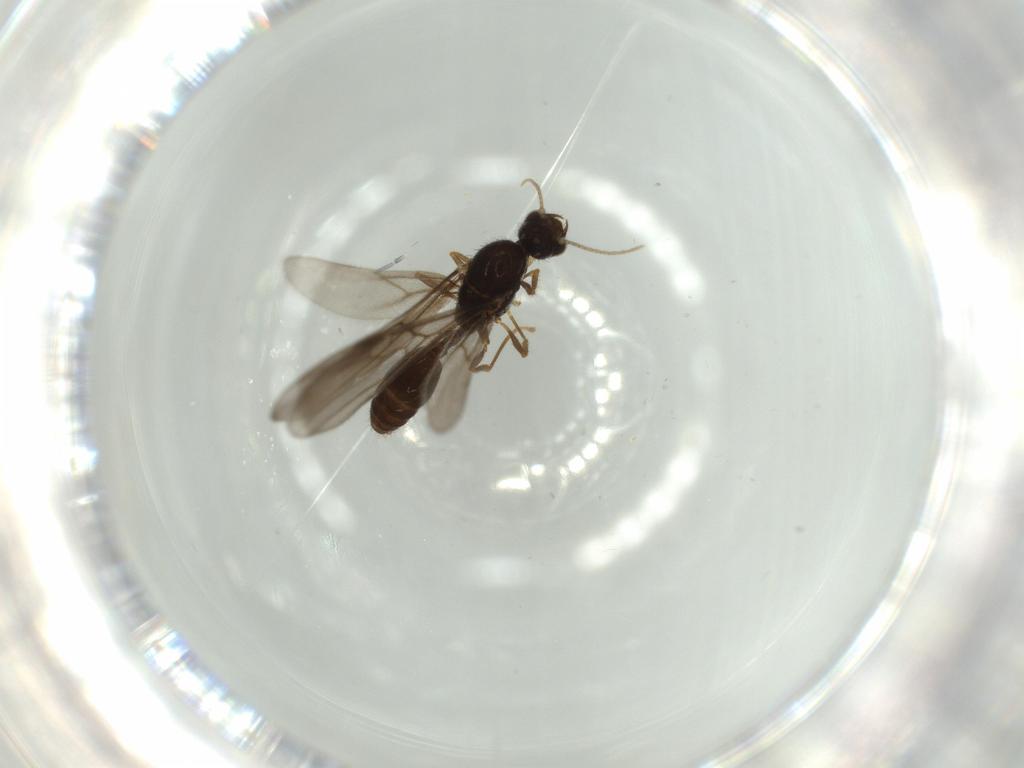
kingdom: Animalia
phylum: Arthropoda
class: Insecta
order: Hymenoptera
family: Formicidae
